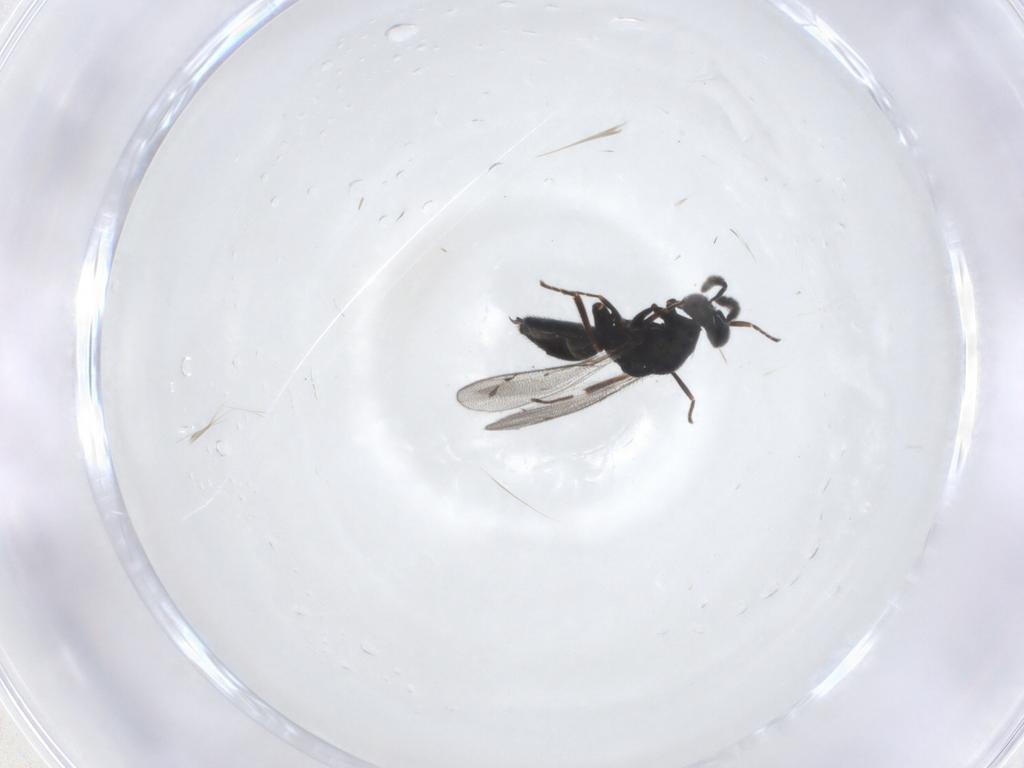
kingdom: Animalia
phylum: Arthropoda
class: Insecta
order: Hymenoptera
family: Eulophidae
